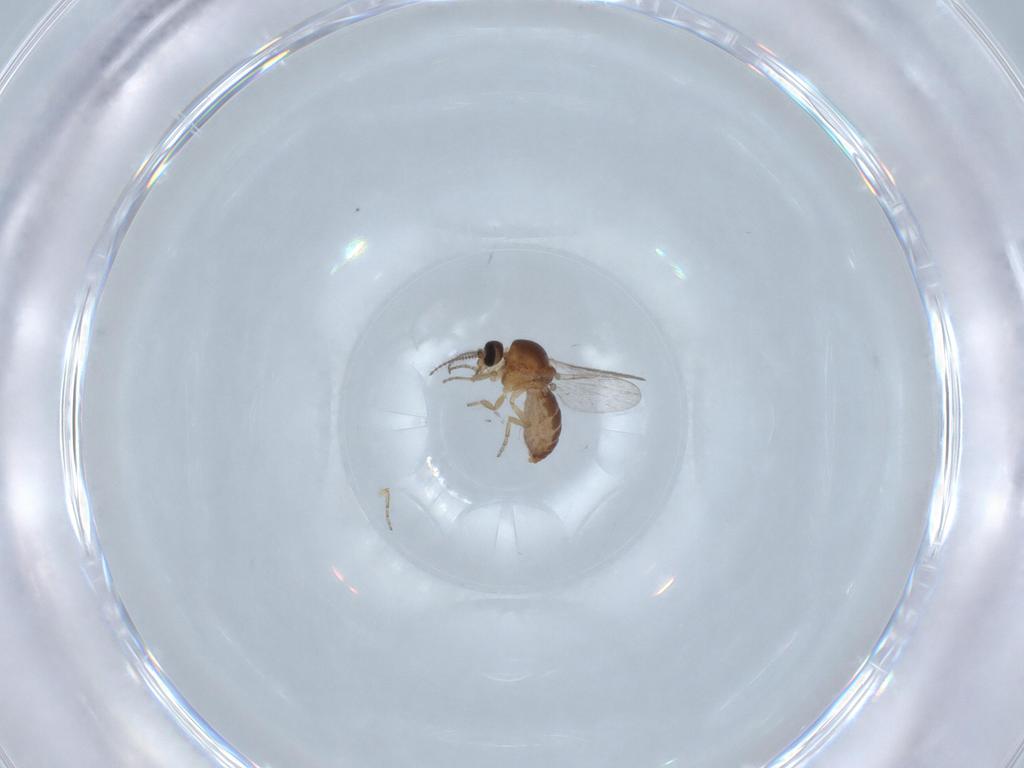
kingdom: Animalia
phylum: Arthropoda
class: Insecta
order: Diptera
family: Ceratopogonidae
